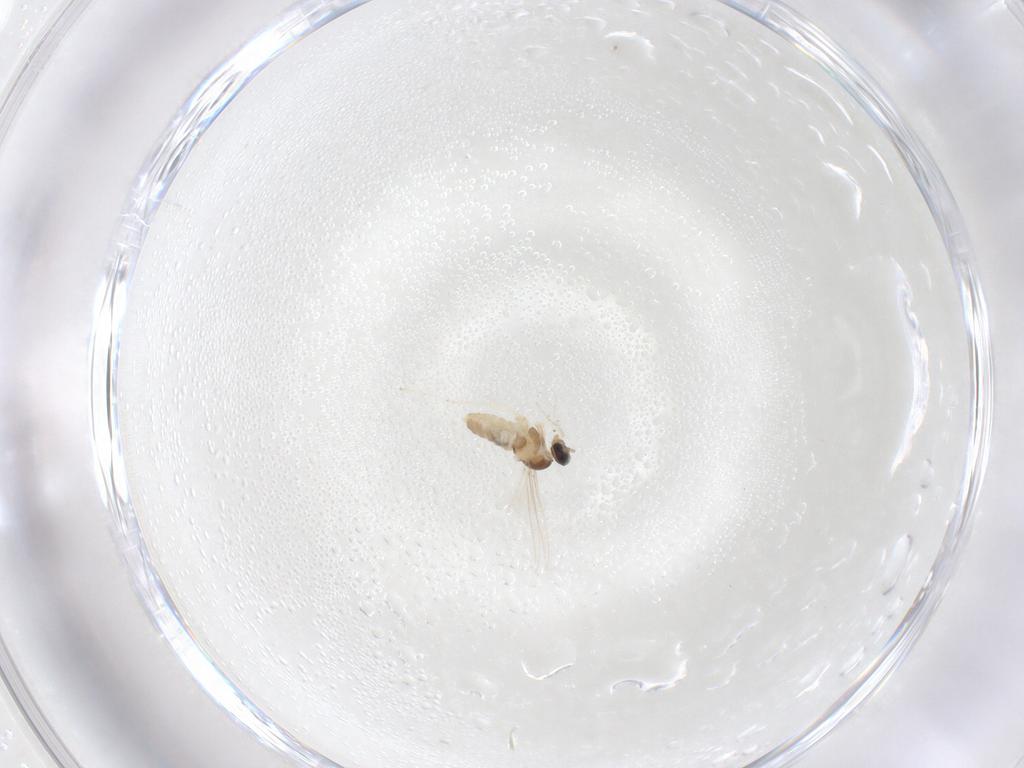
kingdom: Animalia
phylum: Arthropoda
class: Insecta
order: Diptera
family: Cecidomyiidae
